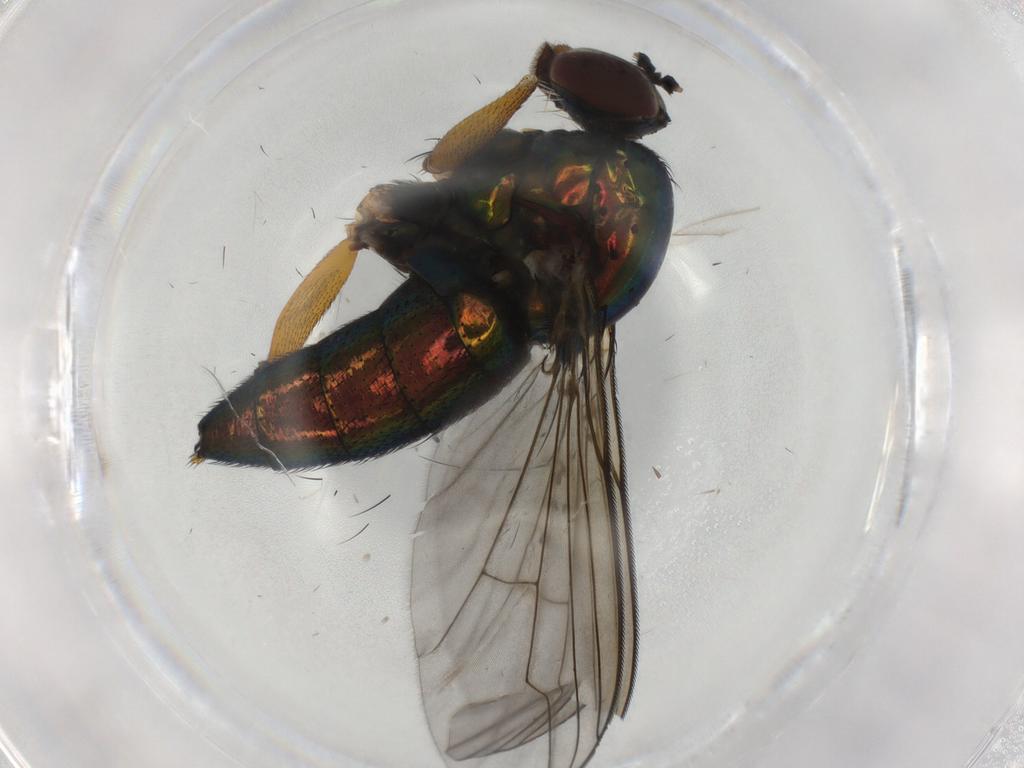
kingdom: Animalia
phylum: Arthropoda
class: Insecta
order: Diptera
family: Dolichopodidae
